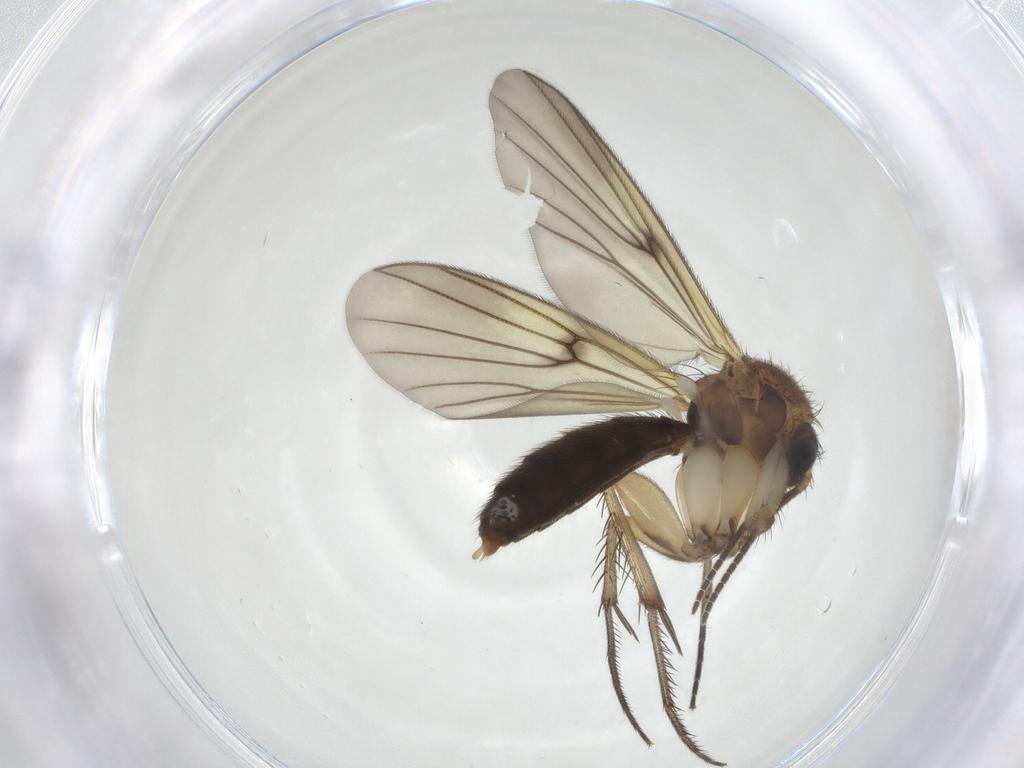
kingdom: Animalia
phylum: Arthropoda
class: Insecta
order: Diptera
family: Mycetophilidae
